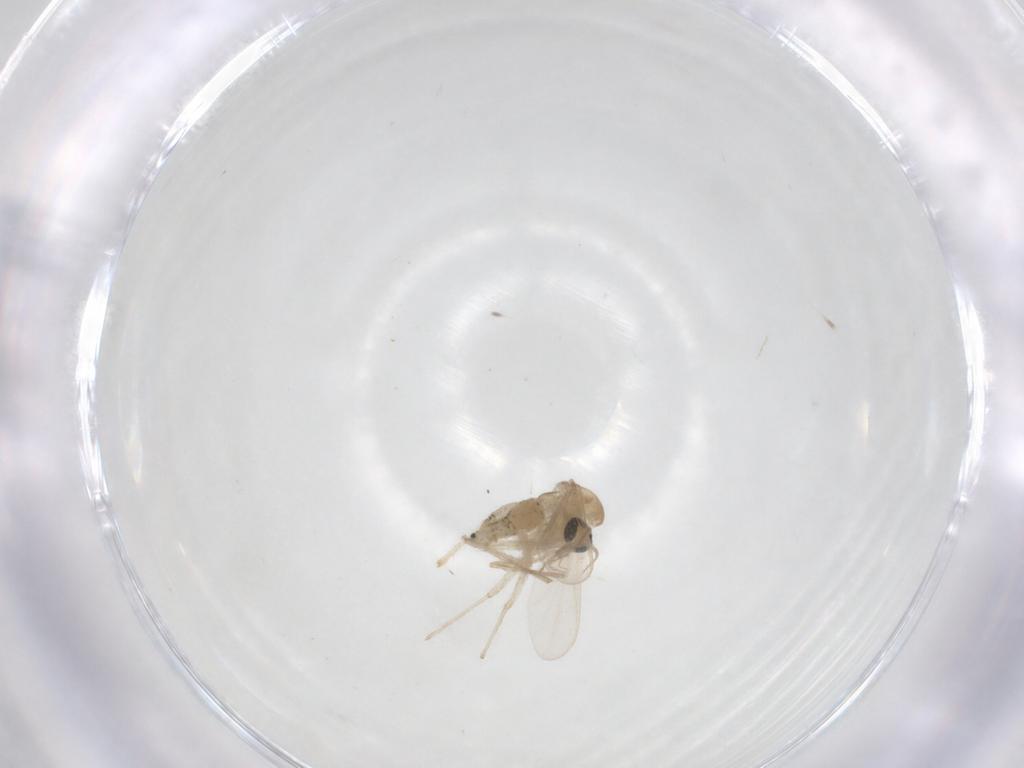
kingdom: Animalia
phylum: Arthropoda
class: Insecta
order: Diptera
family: Chironomidae
